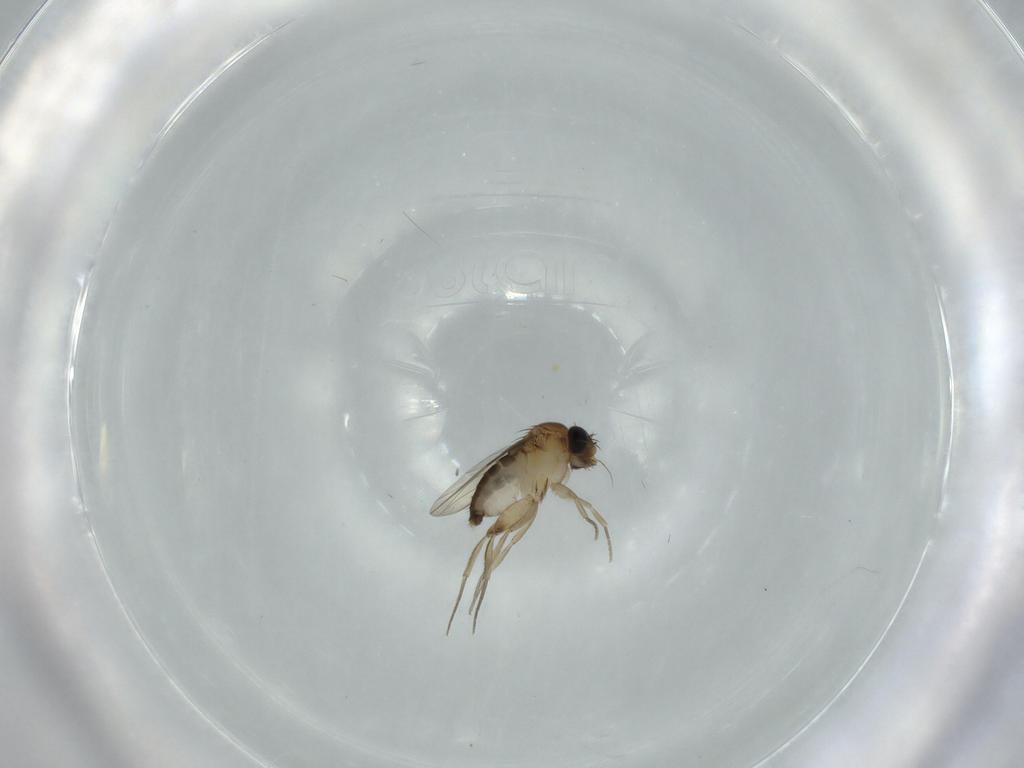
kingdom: Animalia
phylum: Arthropoda
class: Insecta
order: Diptera
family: Phoridae
